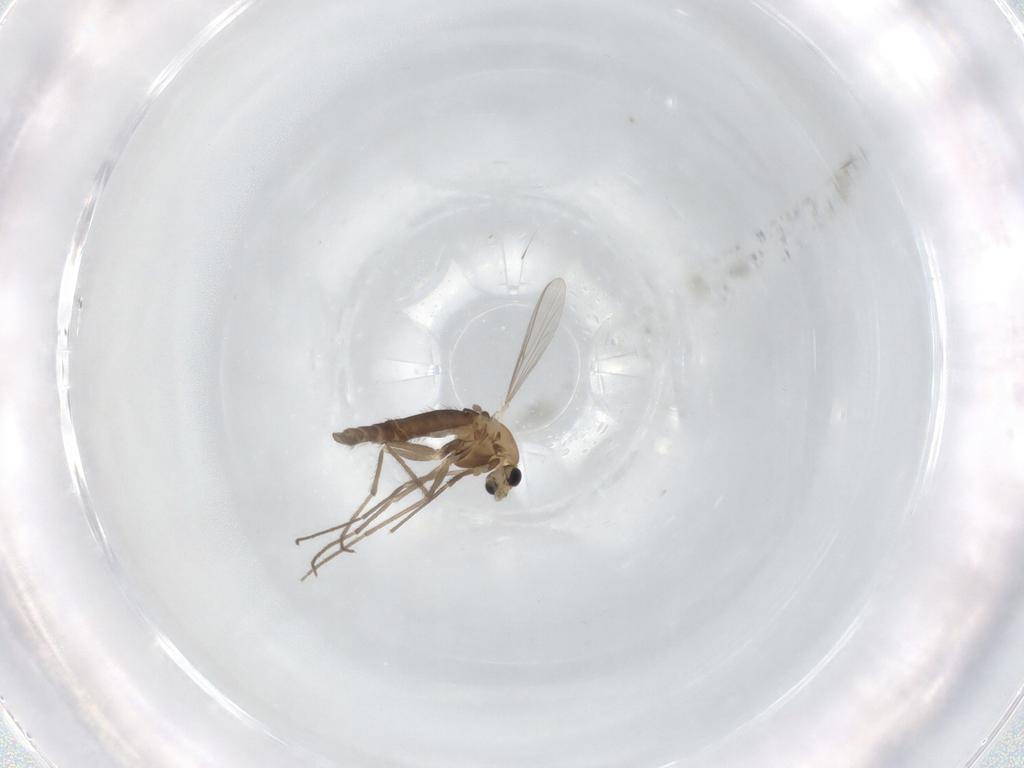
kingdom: Animalia
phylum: Arthropoda
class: Insecta
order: Diptera
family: Chironomidae
